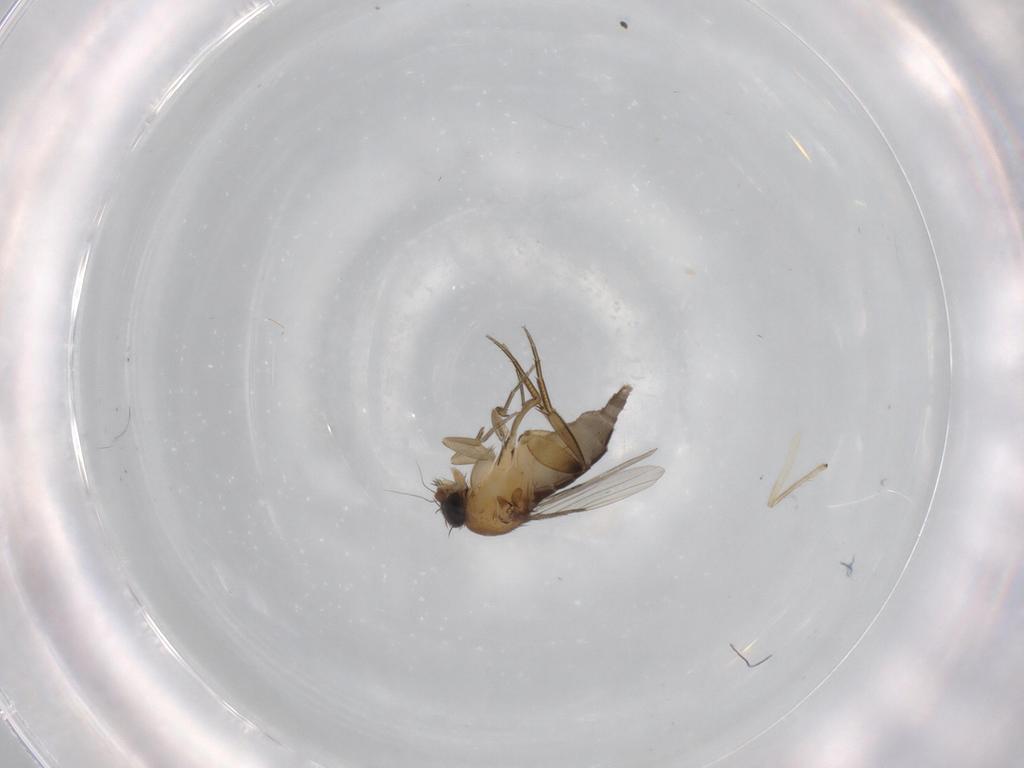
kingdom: Animalia
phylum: Arthropoda
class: Insecta
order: Diptera
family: Phoridae
